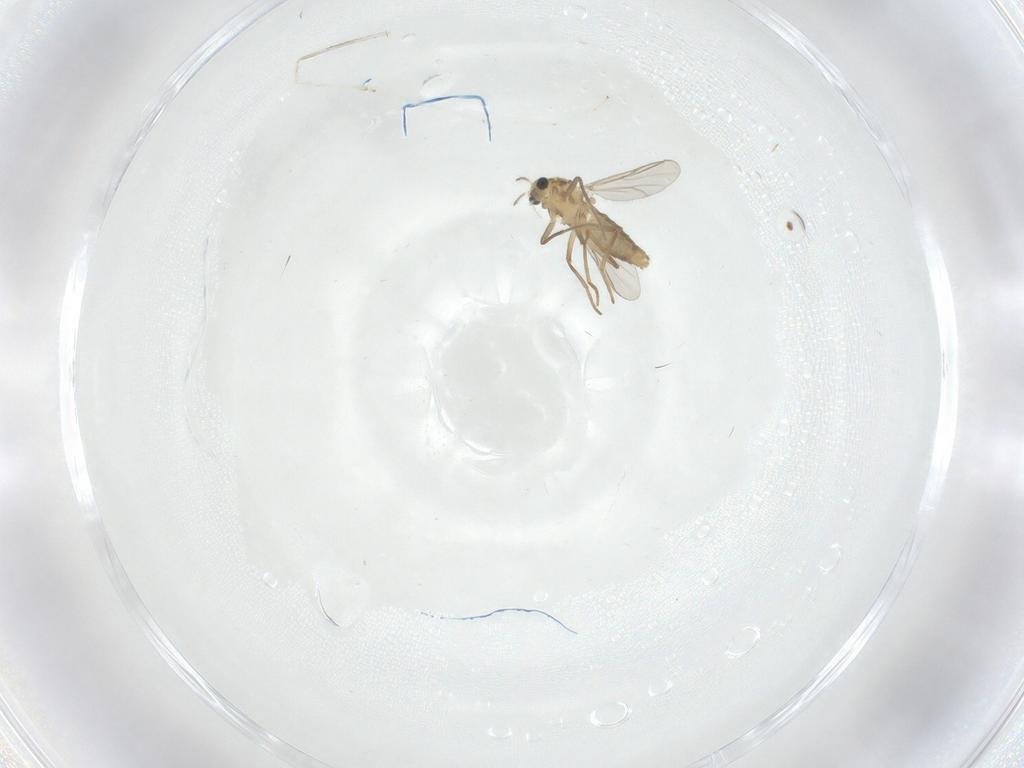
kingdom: Animalia
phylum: Arthropoda
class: Insecta
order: Diptera
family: Cecidomyiidae
